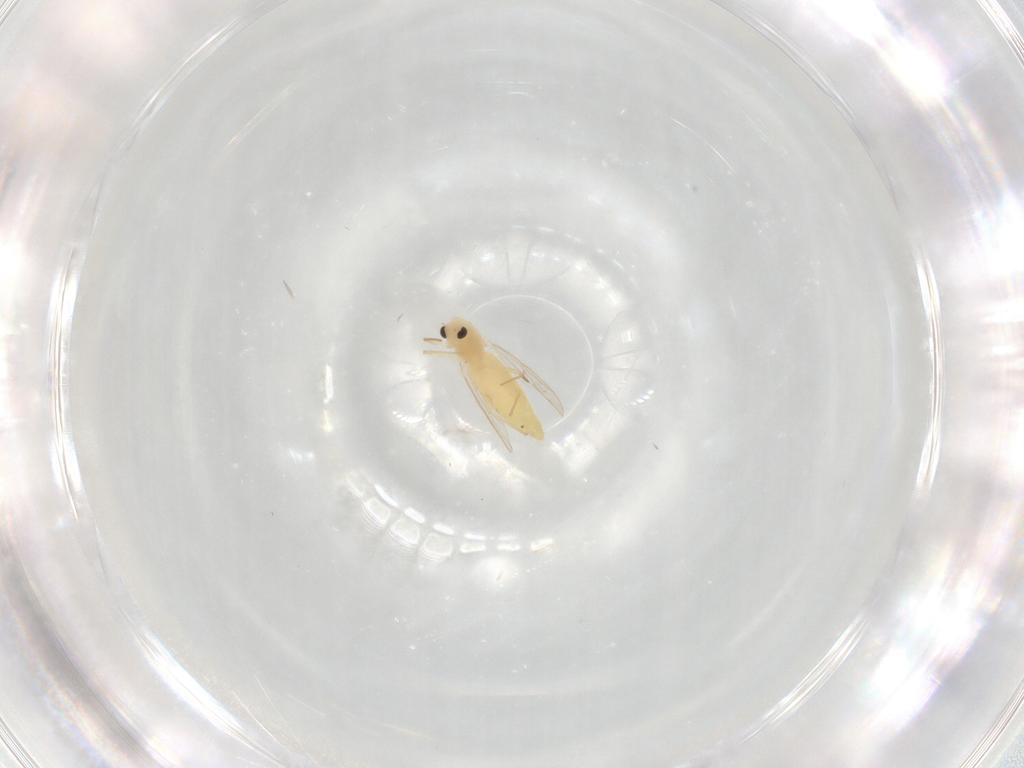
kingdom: Animalia
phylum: Arthropoda
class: Insecta
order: Diptera
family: Chironomidae
